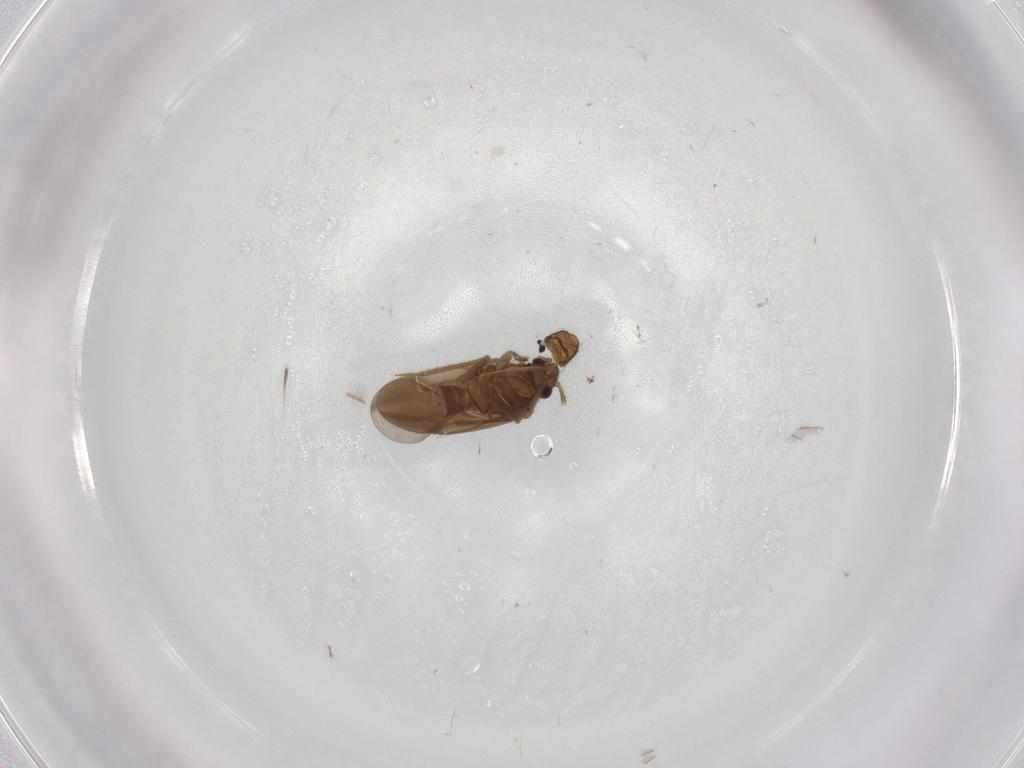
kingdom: Animalia
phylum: Arthropoda
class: Insecta
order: Hemiptera
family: Ceratocombidae
